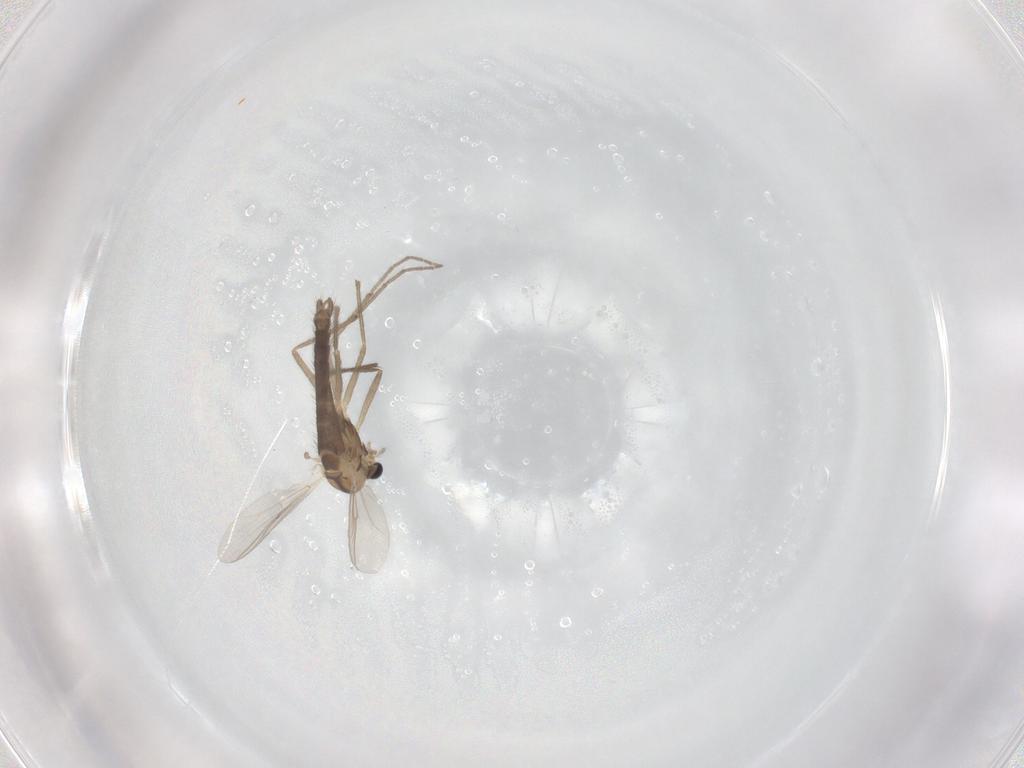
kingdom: Animalia
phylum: Arthropoda
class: Insecta
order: Diptera
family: Chironomidae
